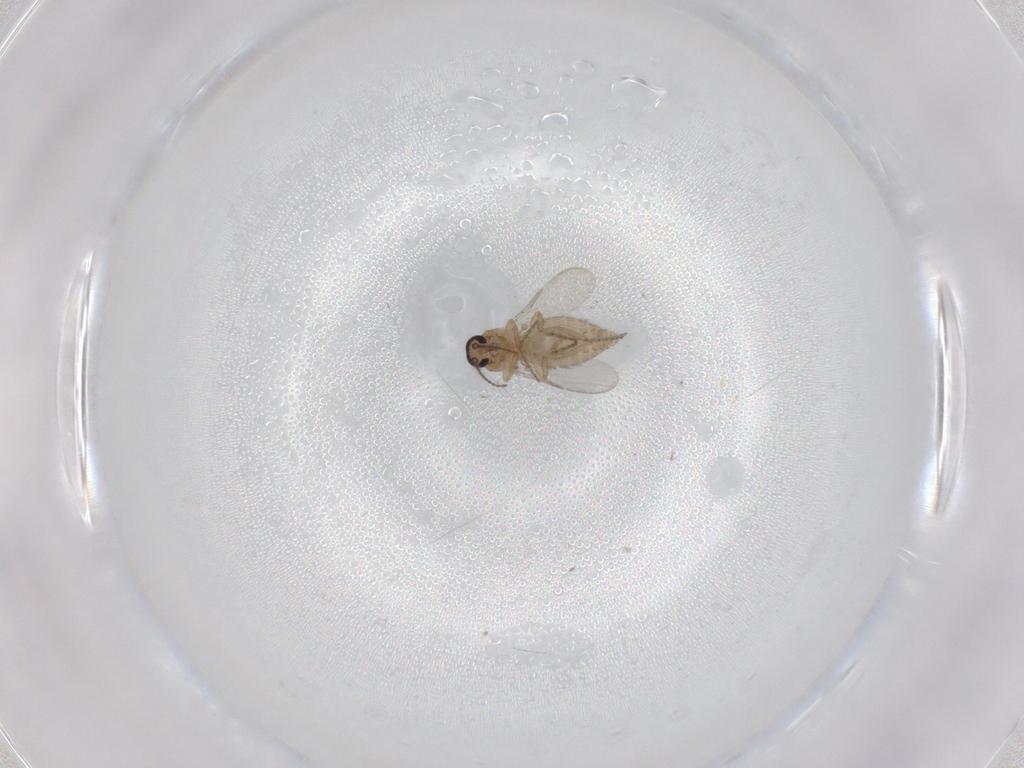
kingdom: Animalia
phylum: Arthropoda
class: Insecta
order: Diptera
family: Ceratopogonidae
